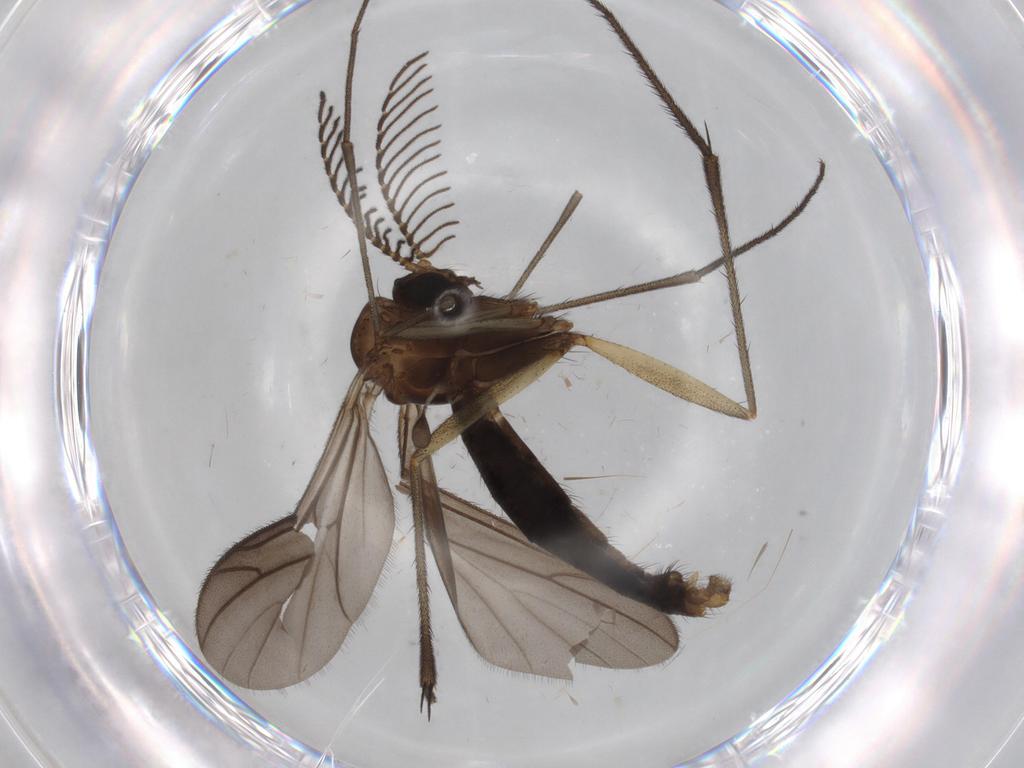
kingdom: Animalia
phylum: Arthropoda
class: Insecta
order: Diptera
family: Cecidomyiidae
